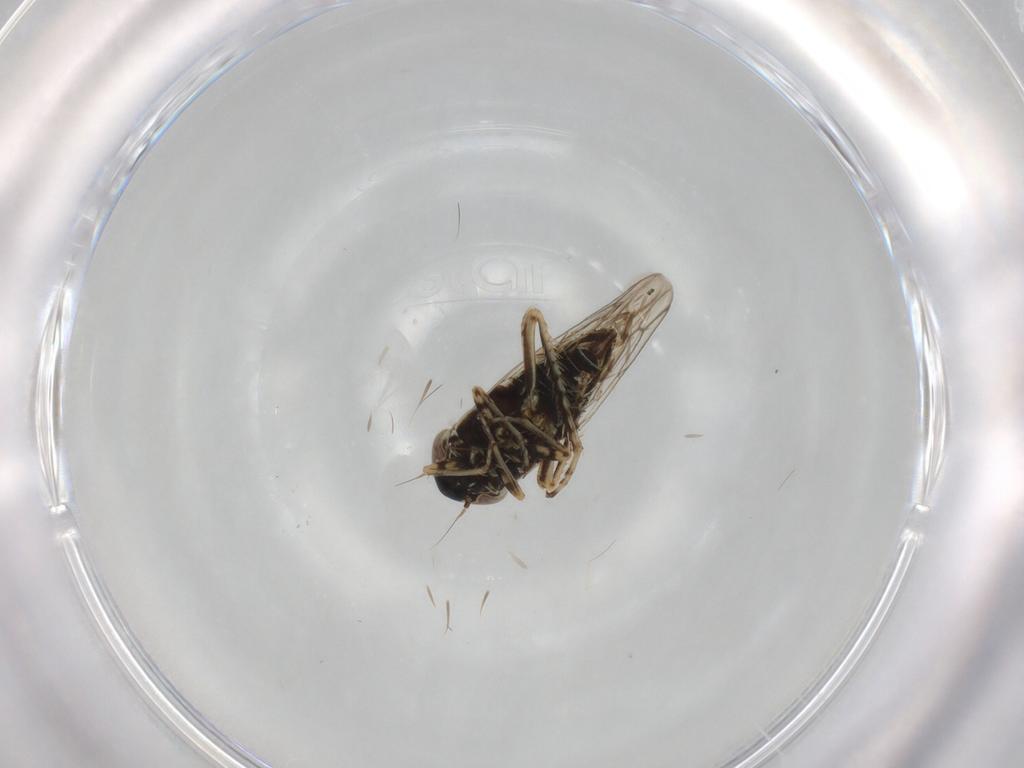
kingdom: Animalia
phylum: Arthropoda
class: Insecta
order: Hemiptera
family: Cicadellidae
